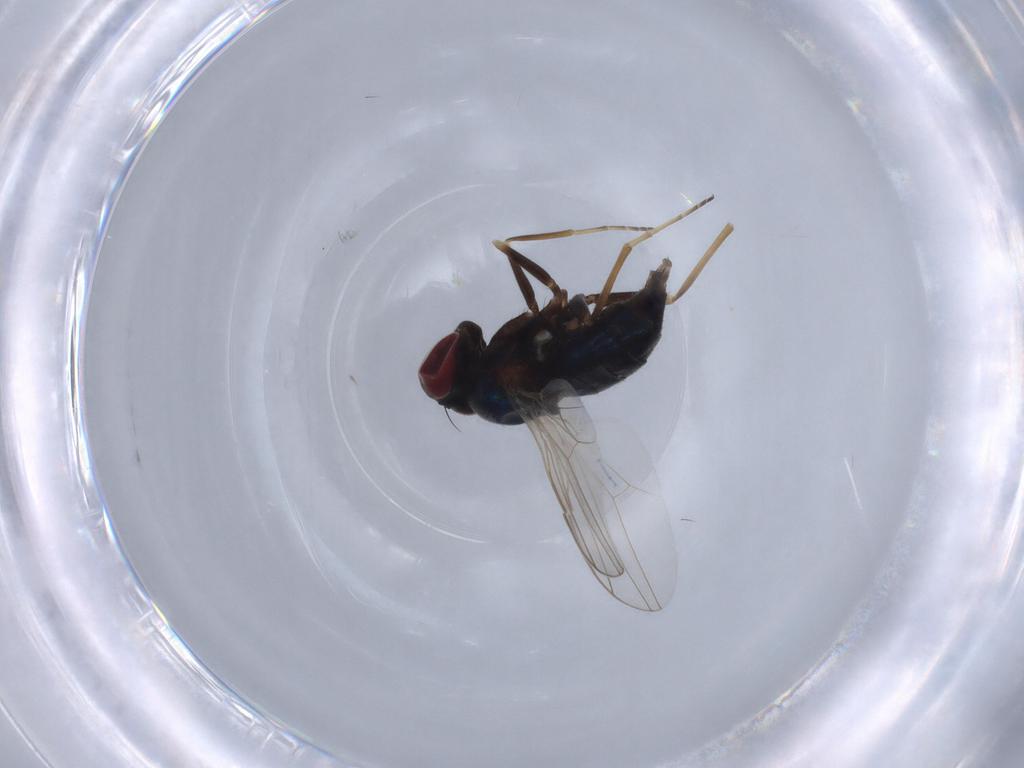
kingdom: Animalia
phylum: Arthropoda
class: Insecta
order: Diptera
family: Dolichopodidae
